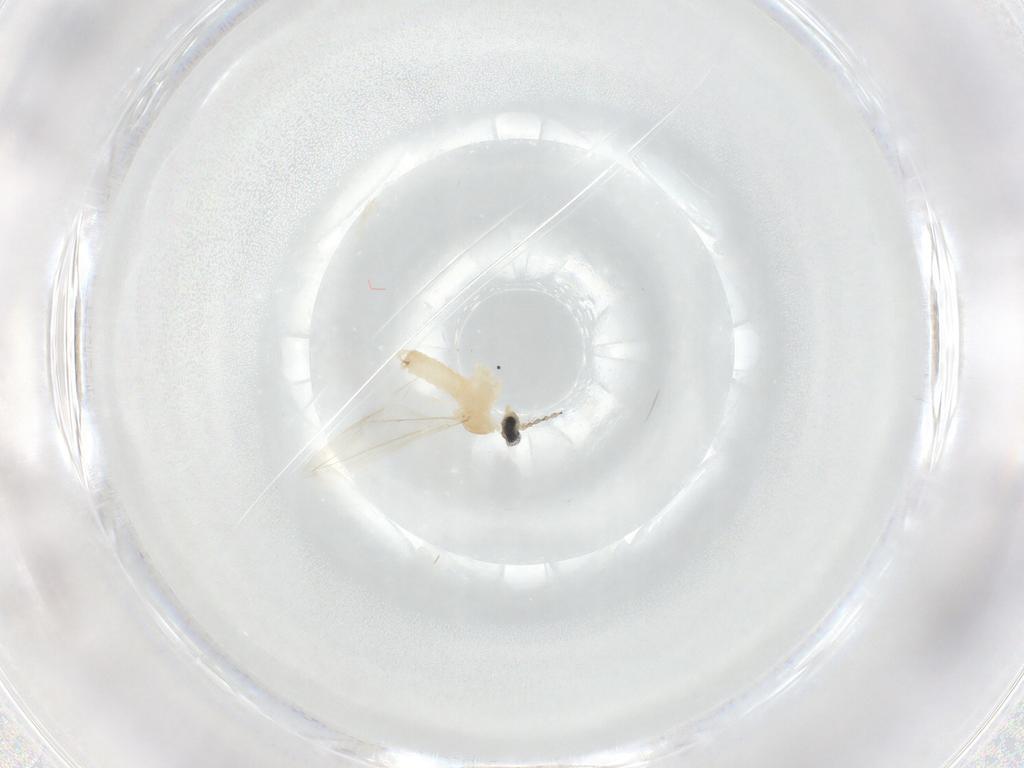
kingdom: Animalia
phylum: Arthropoda
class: Insecta
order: Diptera
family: Cecidomyiidae
